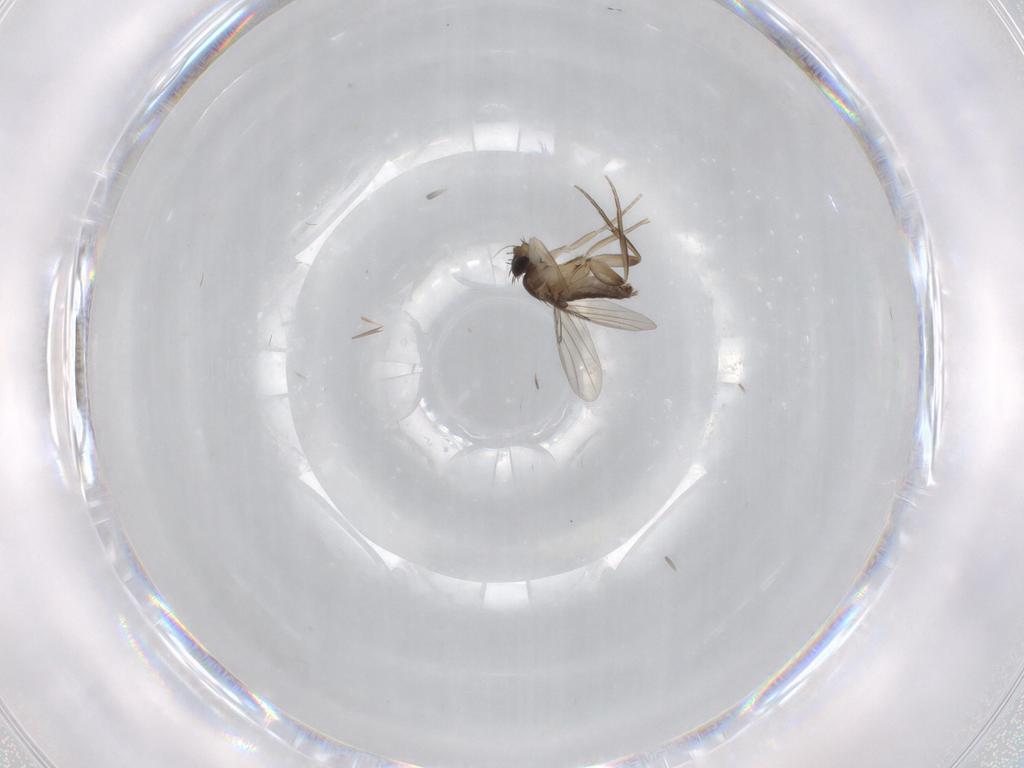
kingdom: Animalia
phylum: Arthropoda
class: Insecta
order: Diptera
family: Phoridae
